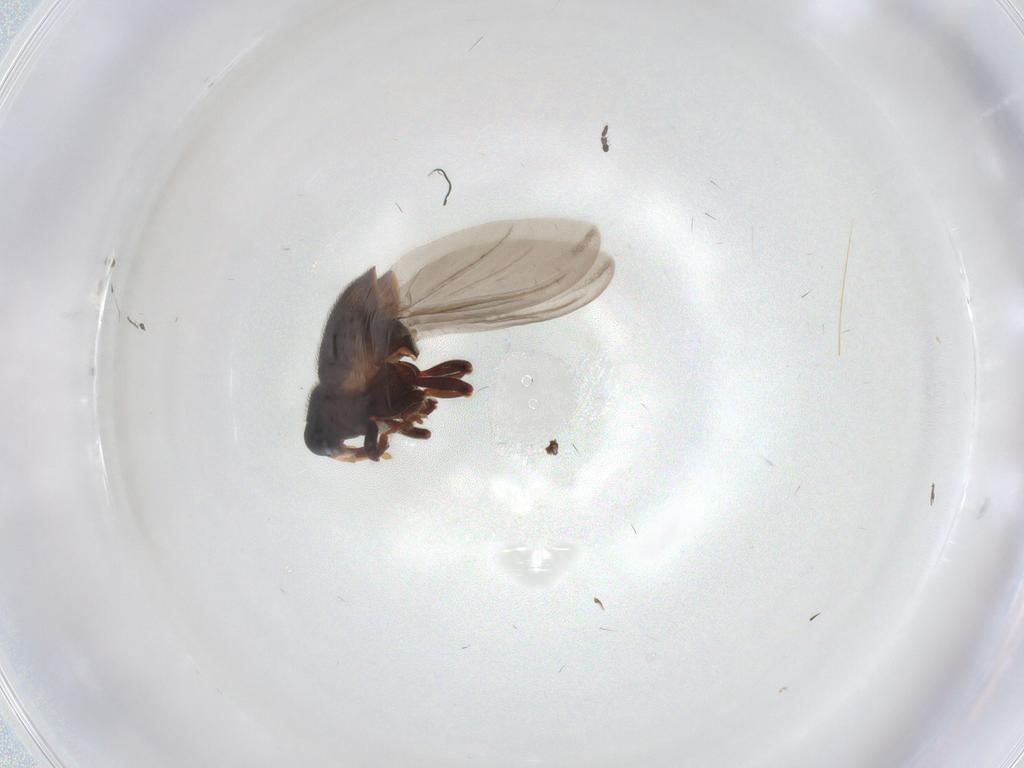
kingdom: Animalia
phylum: Arthropoda
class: Insecta
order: Coleoptera
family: Curculionidae
